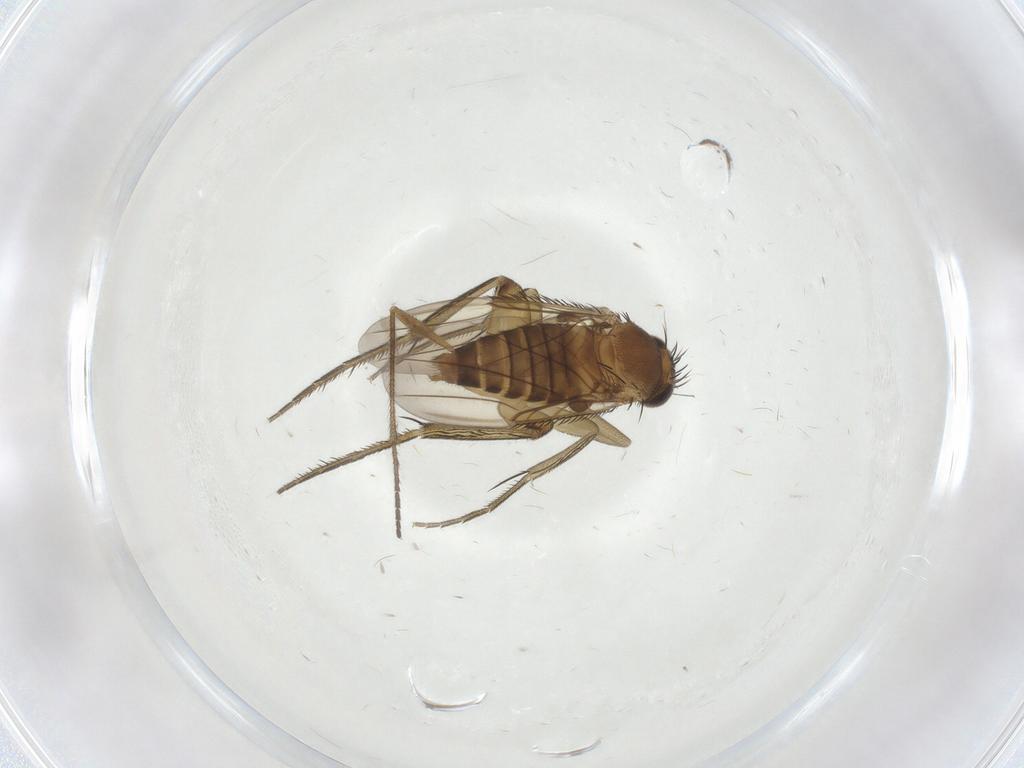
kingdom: Animalia
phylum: Arthropoda
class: Insecta
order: Diptera
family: Phoridae
